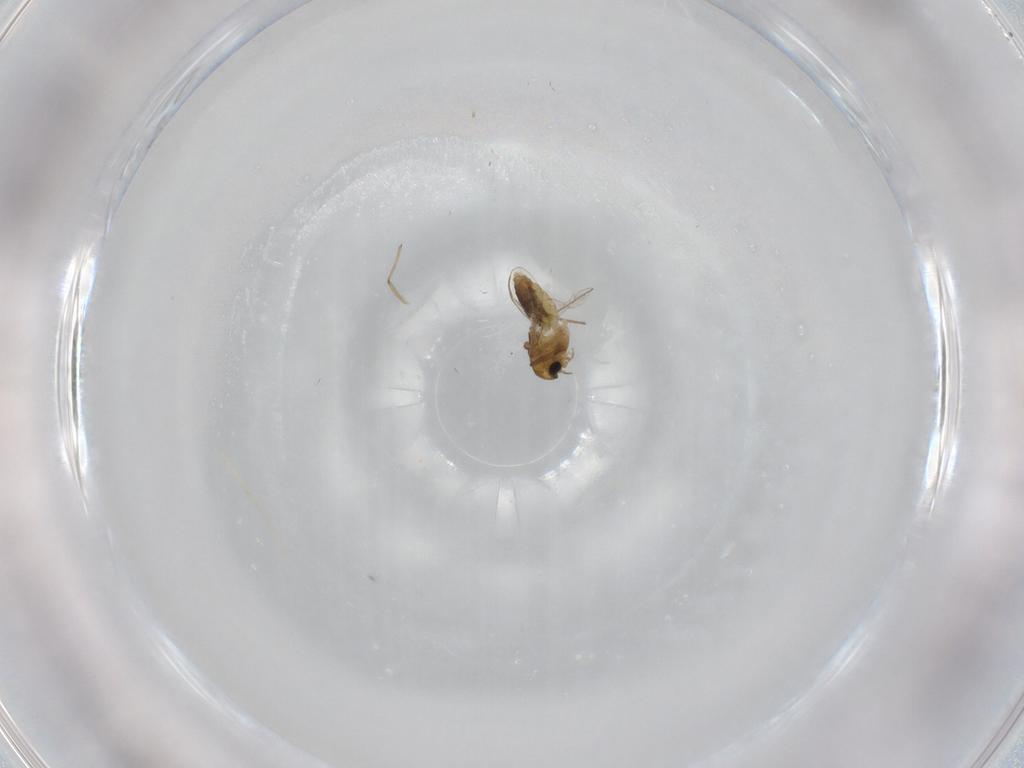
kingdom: Animalia
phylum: Arthropoda
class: Insecta
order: Diptera
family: Chironomidae
